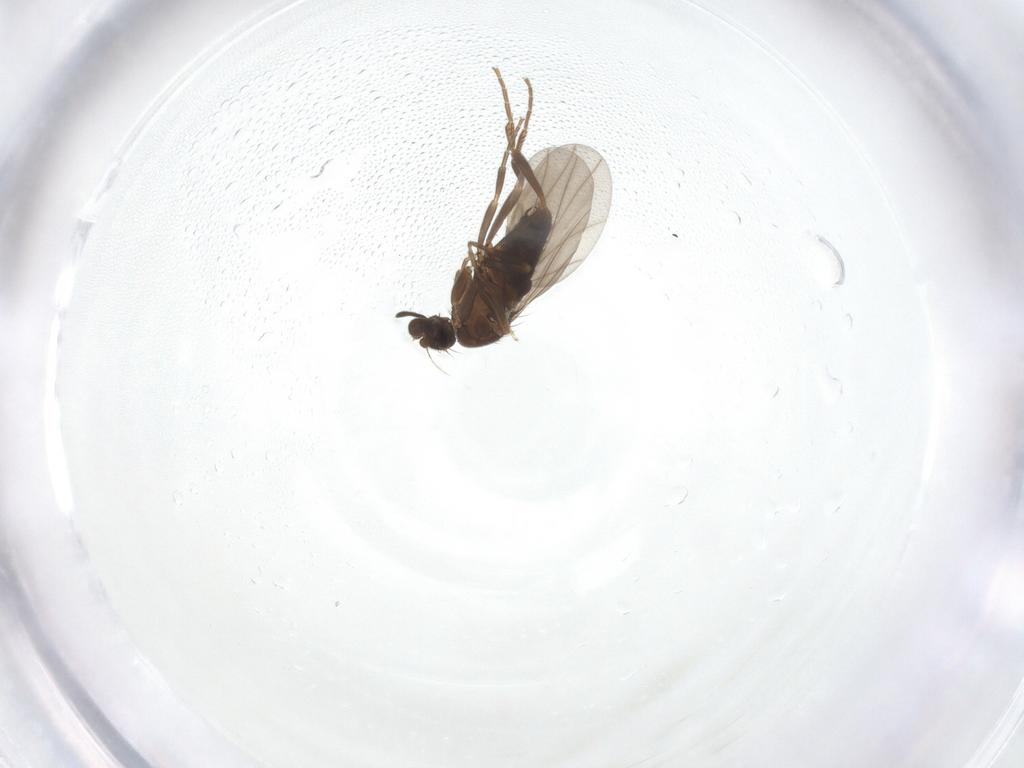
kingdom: Animalia
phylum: Arthropoda
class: Insecta
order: Diptera
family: Phoridae
